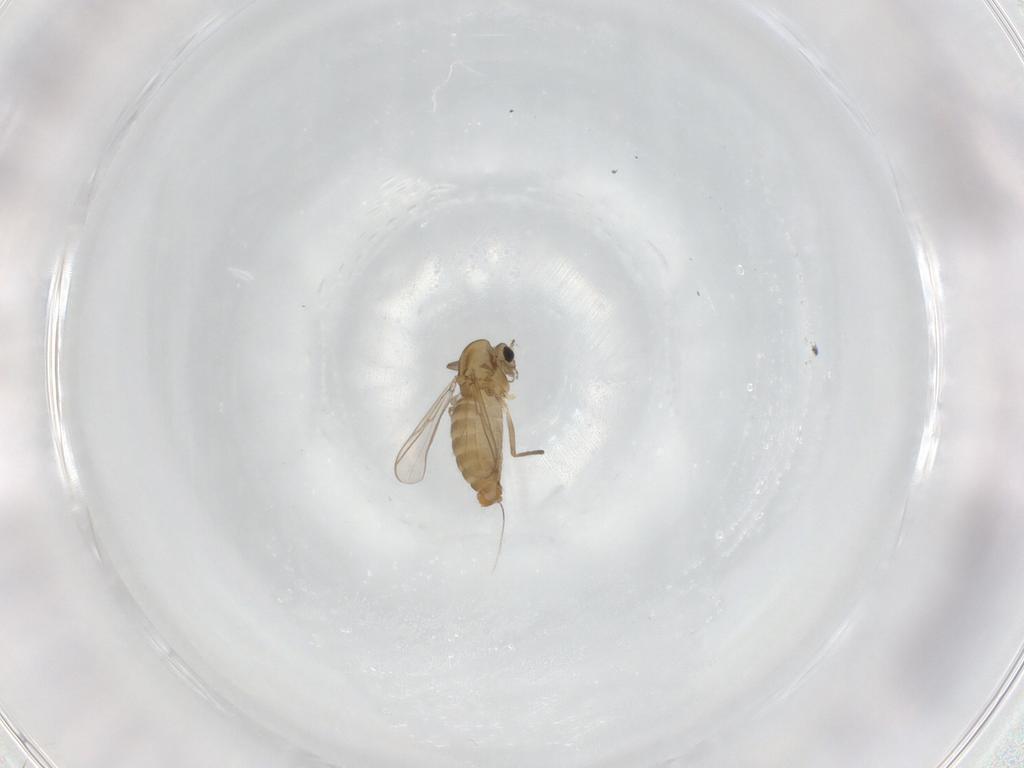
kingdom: Animalia
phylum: Arthropoda
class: Insecta
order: Diptera
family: Chironomidae
